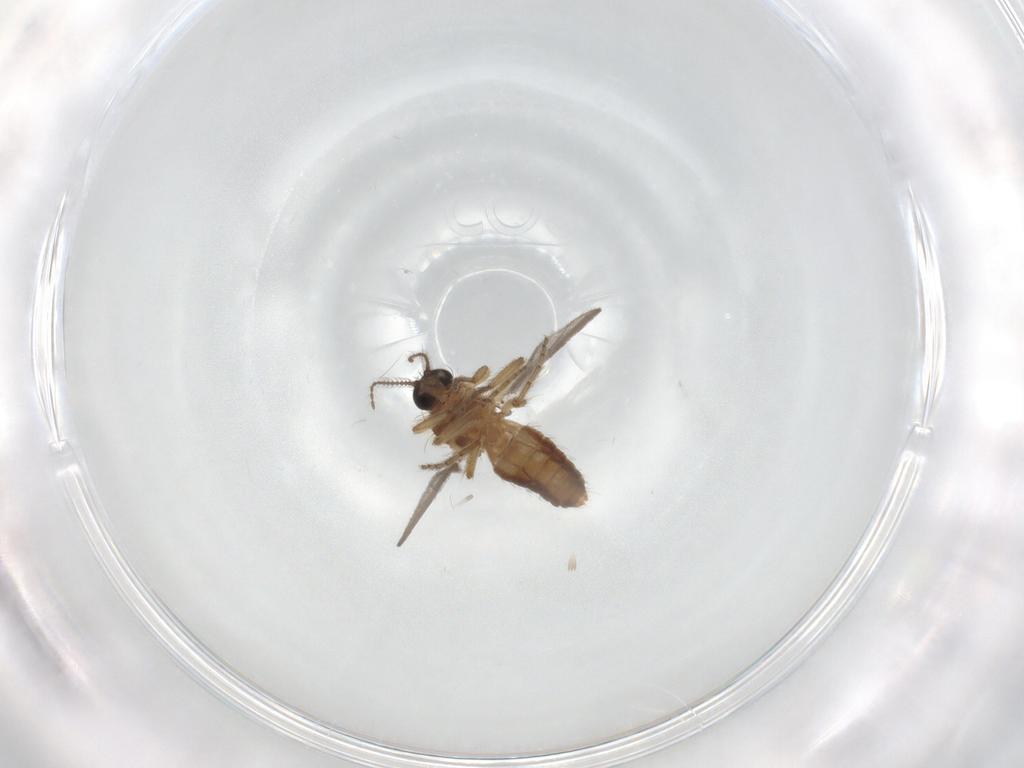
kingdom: Animalia
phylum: Arthropoda
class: Insecta
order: Diptera
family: Ceratopogonidae
